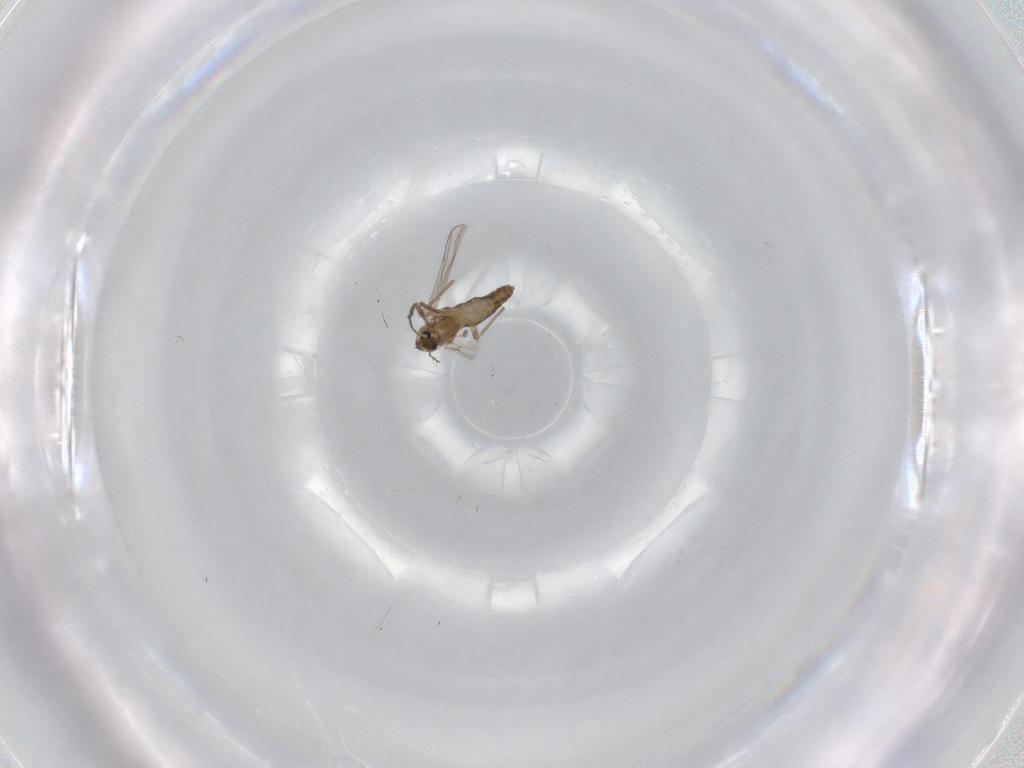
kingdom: Animalia
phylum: Arthropoda
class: Insecta
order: Diptera
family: Chironomidae
